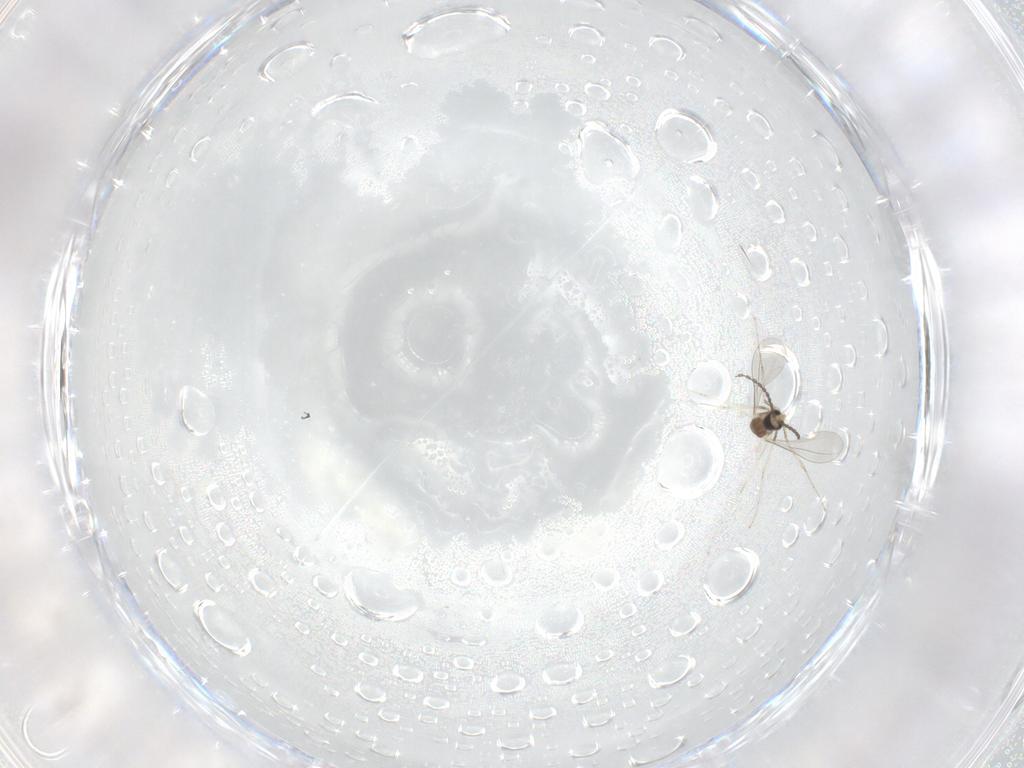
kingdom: Animalia
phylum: Arthropoda
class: Insecta
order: Diptera
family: Cecidomyiidae
